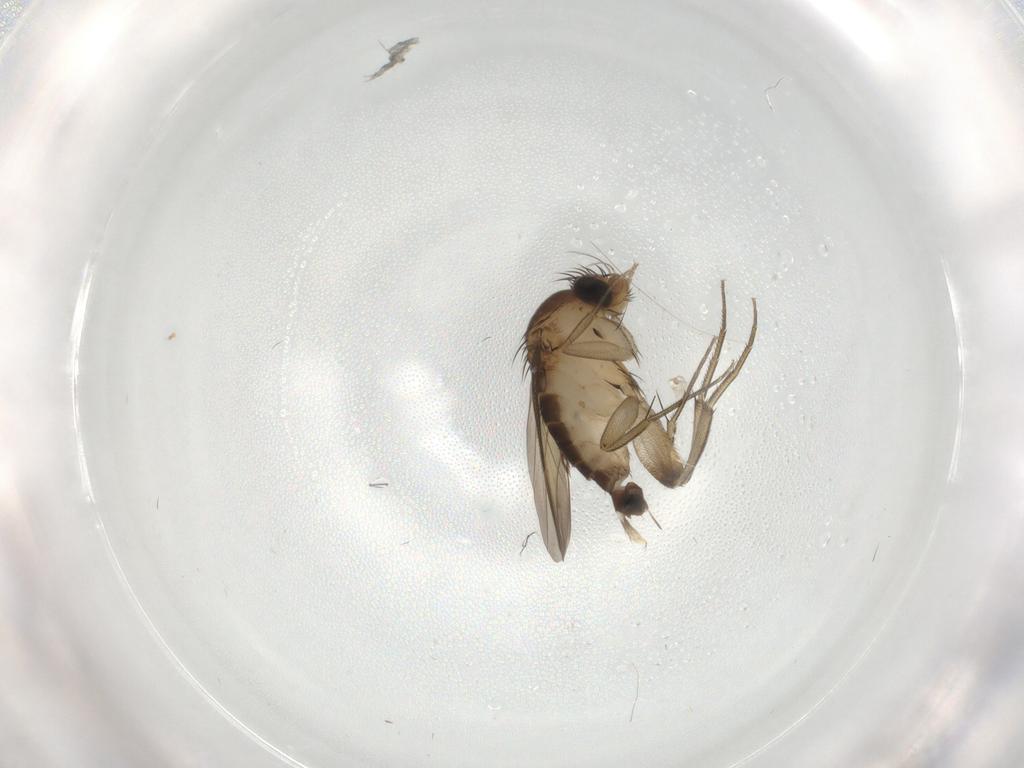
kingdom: Animalia
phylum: Arthropoda
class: Insecta
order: Diptera
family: Phoridae
